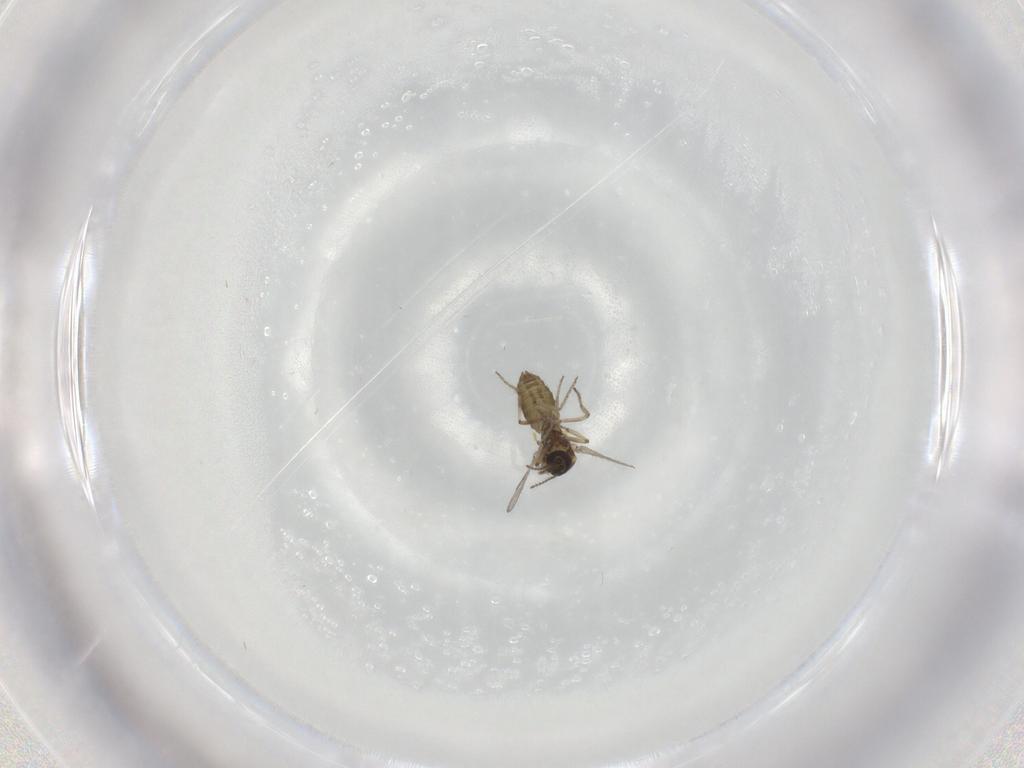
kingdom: Animalia
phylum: Arthropoda
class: Insecta
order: Diptera
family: Ceratopogonidae
